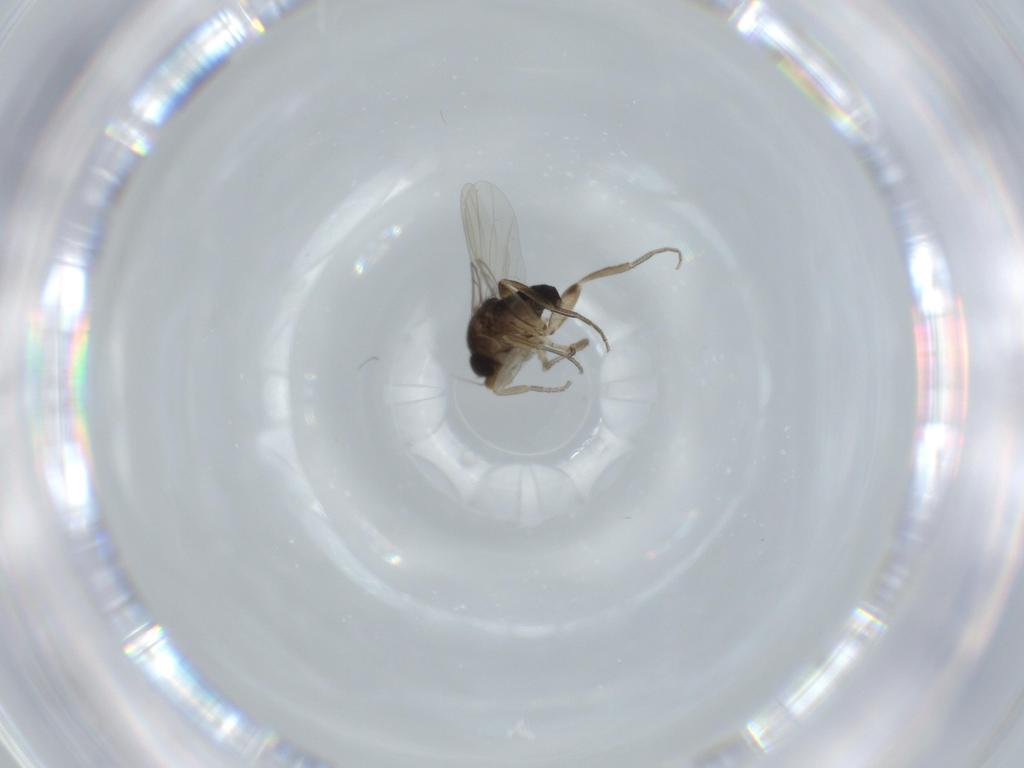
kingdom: Animalia
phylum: Arthropoda
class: Insecta
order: Diptera
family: Phoridae
